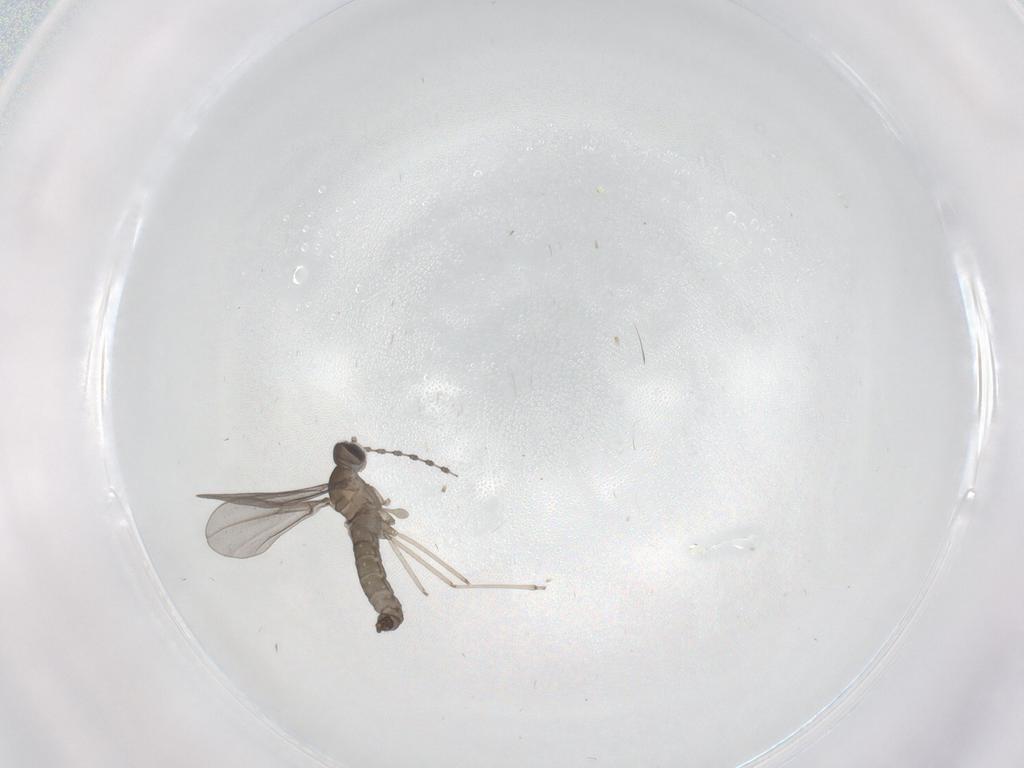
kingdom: Animalia
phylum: Arthropoda
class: Insecta
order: Diptera
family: Cecidomyiidae
